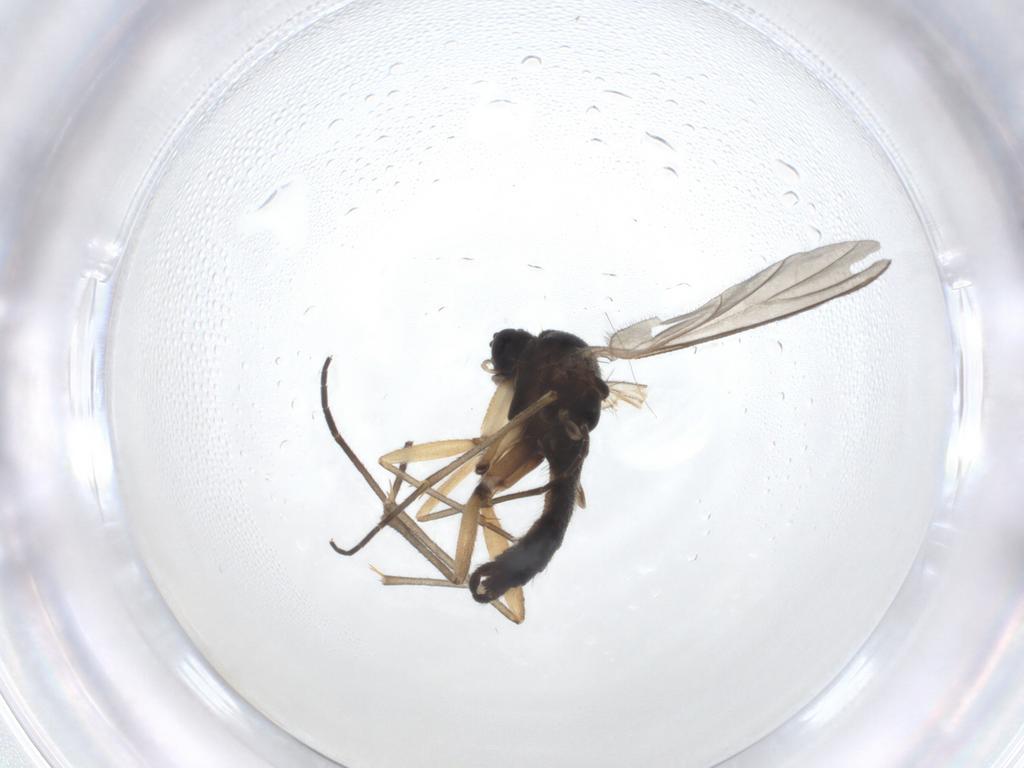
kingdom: Animalia
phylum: Arthropoda
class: Insecta
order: Diptera
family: Sciaridae
